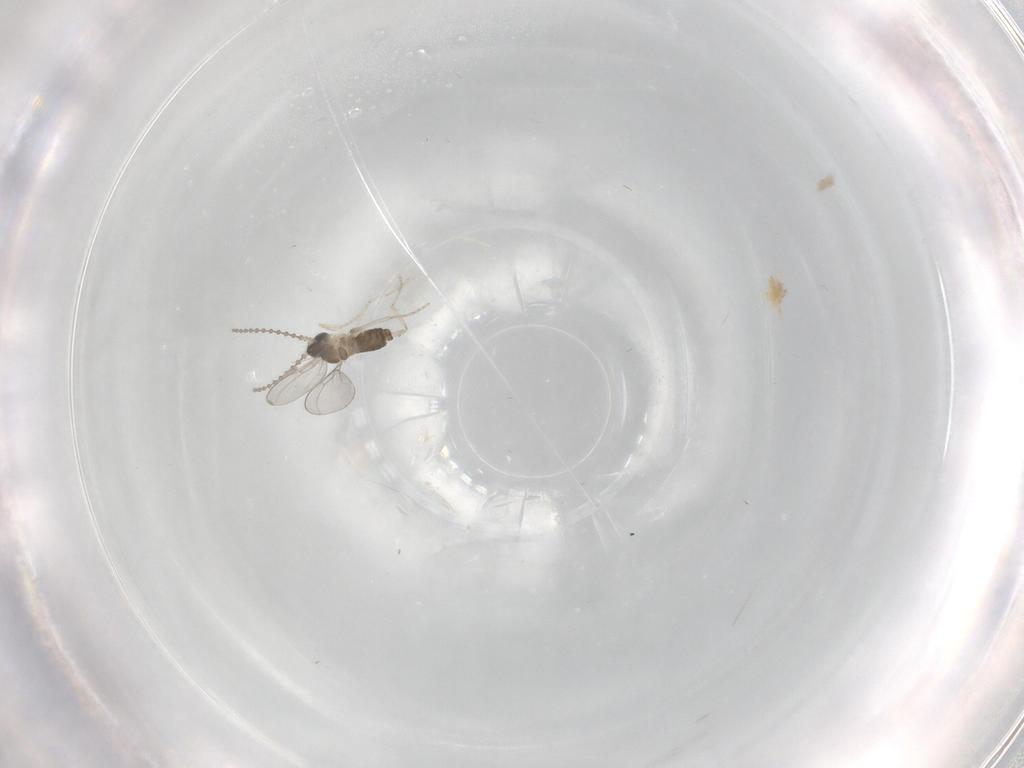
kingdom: Animalia
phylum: Arthropoda
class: Insecta
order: Diptera
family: Cecidomyiidae
